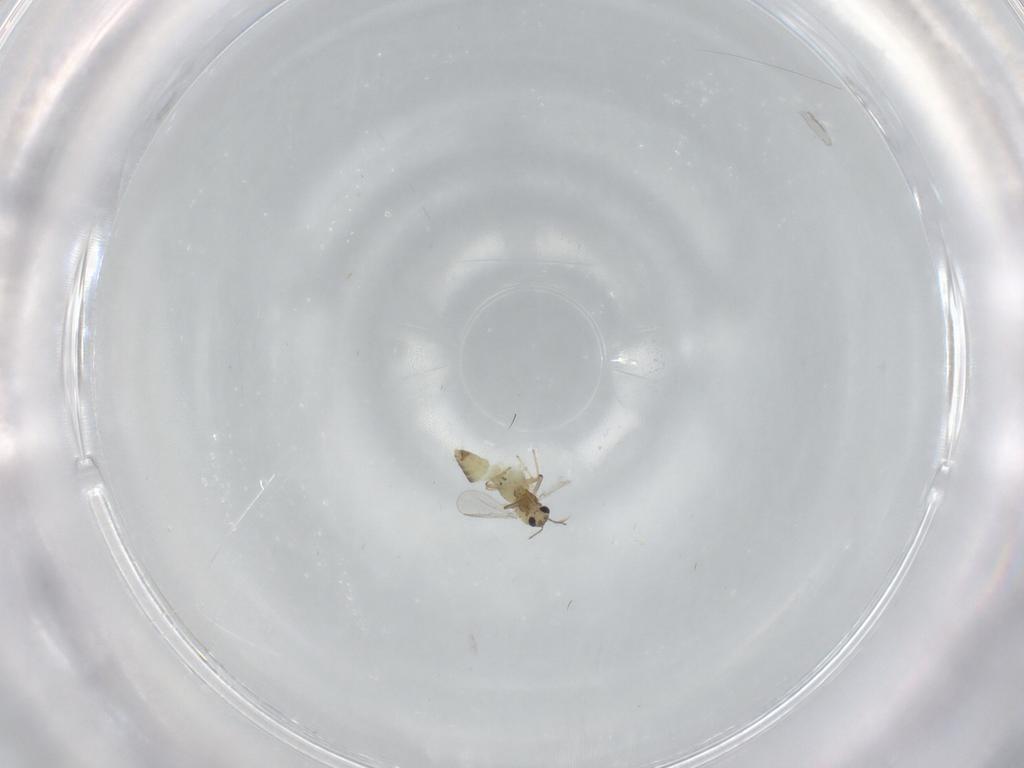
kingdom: Animalia
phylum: Arthropoda
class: Insecta
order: Diptera
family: Chironomidae
